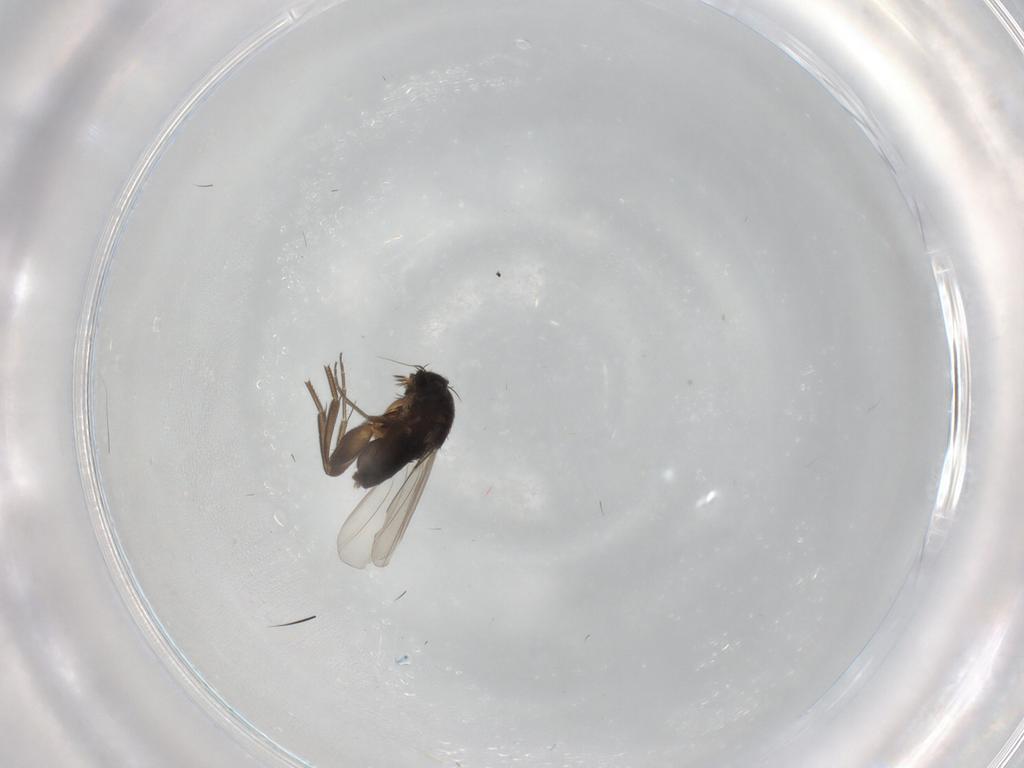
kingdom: Animalia
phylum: Arthropoda
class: Insecta
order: Diptera
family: Phoridae
